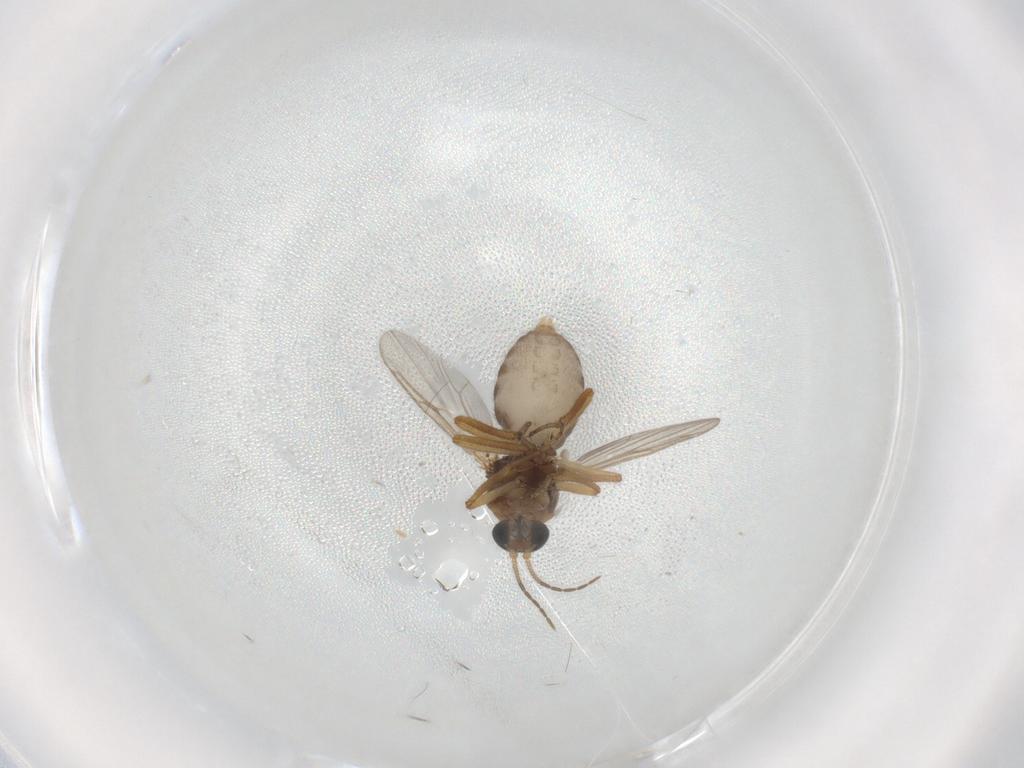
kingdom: Animalia
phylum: Arthropoda
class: Insecta
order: Diptera
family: Ceratopogonidae
